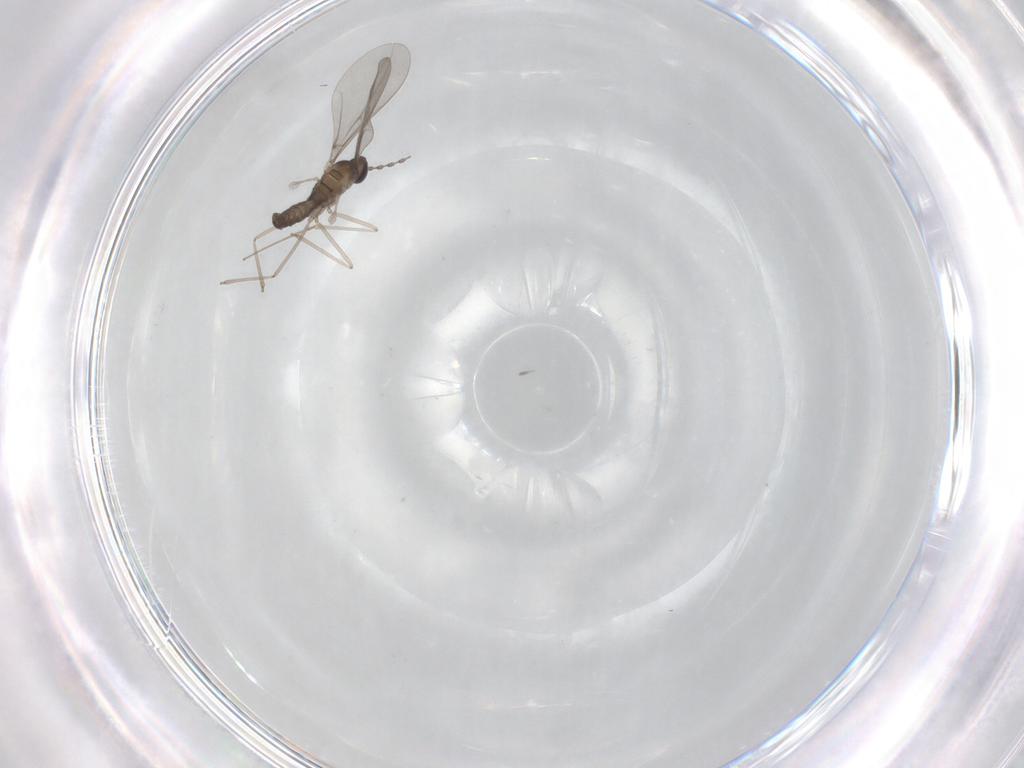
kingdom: Animalia
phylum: Arthropoda
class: Insecta
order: Diptera
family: Cecidomyiidae
